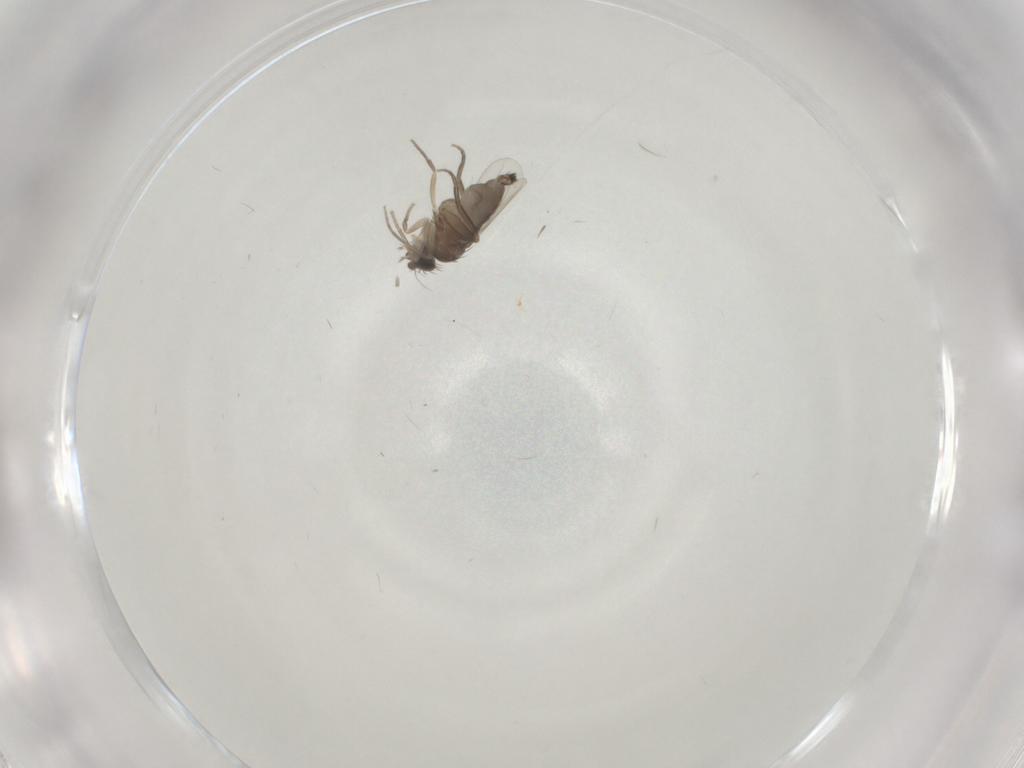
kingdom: Animalia
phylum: Arthropoda
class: Insecta
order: Diptera
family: Phoridae
